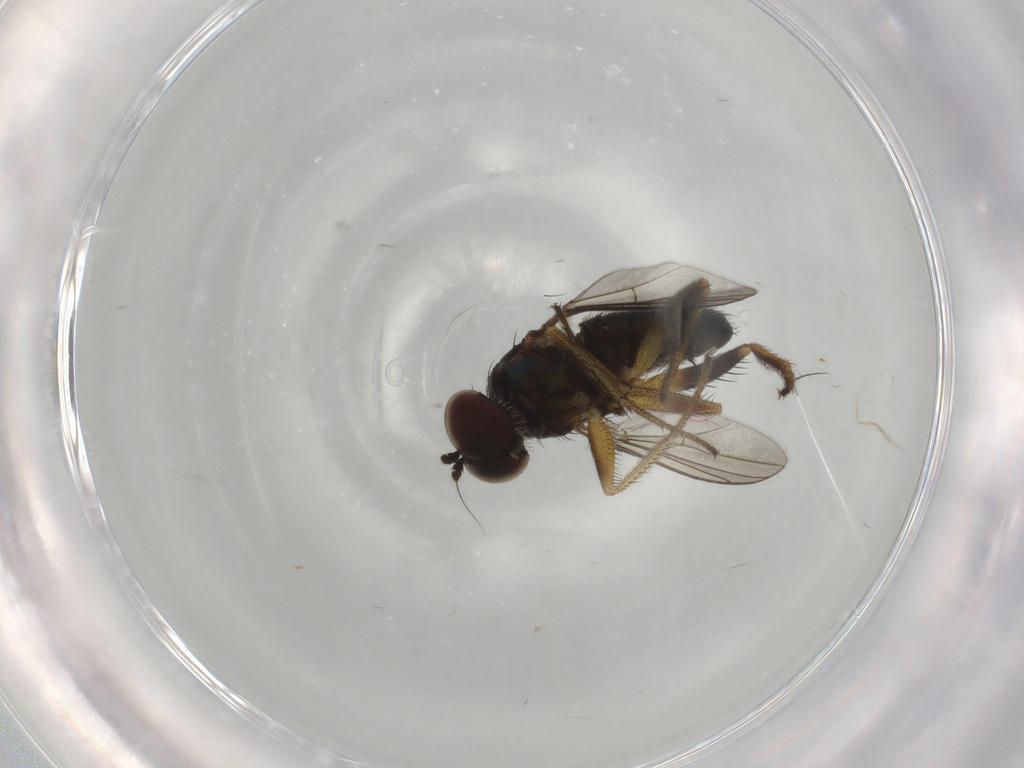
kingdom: Animalia
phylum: Arthropoda
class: Insecta
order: Diptera
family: Dolichopodidae
